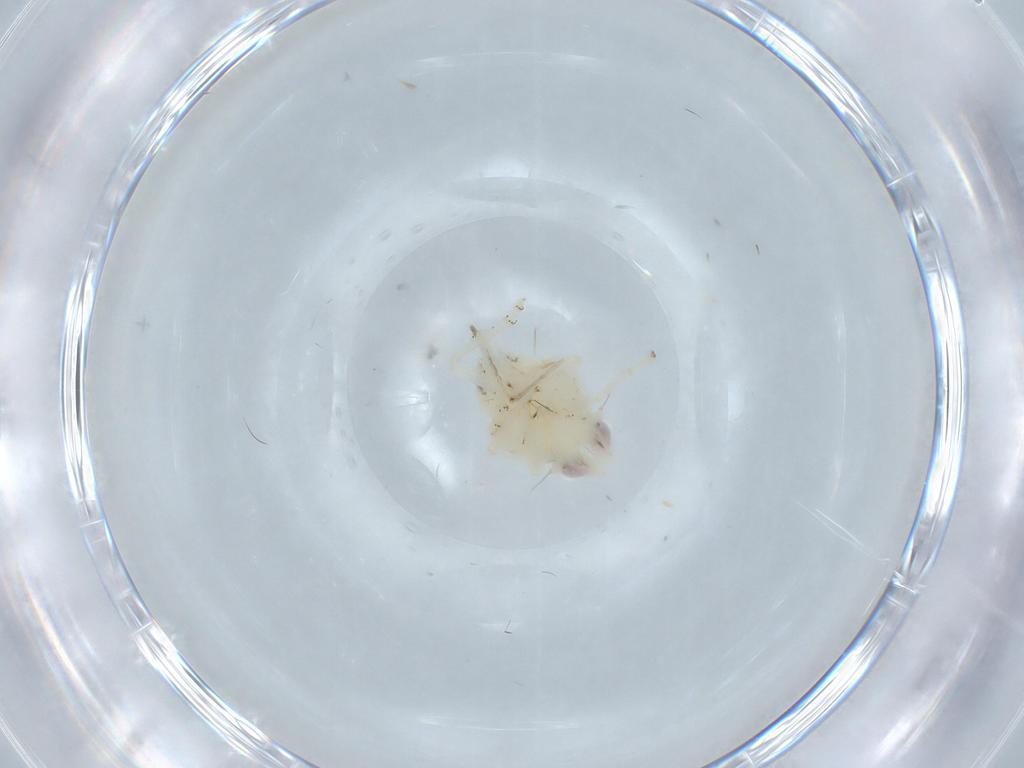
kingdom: Animalia
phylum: Arthropoda
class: Insecta
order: Hemiptera
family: Nogodinidae
